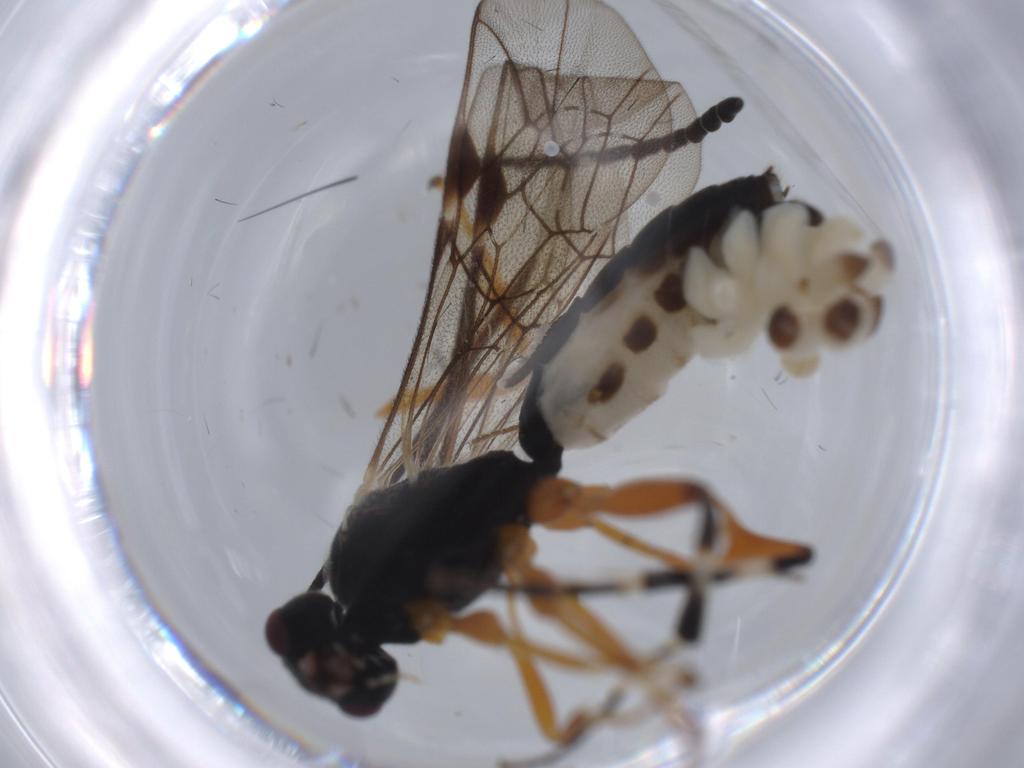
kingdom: Animalia
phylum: Arthropoda
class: Insecta
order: Hymenoptera
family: Ichneumonidae
